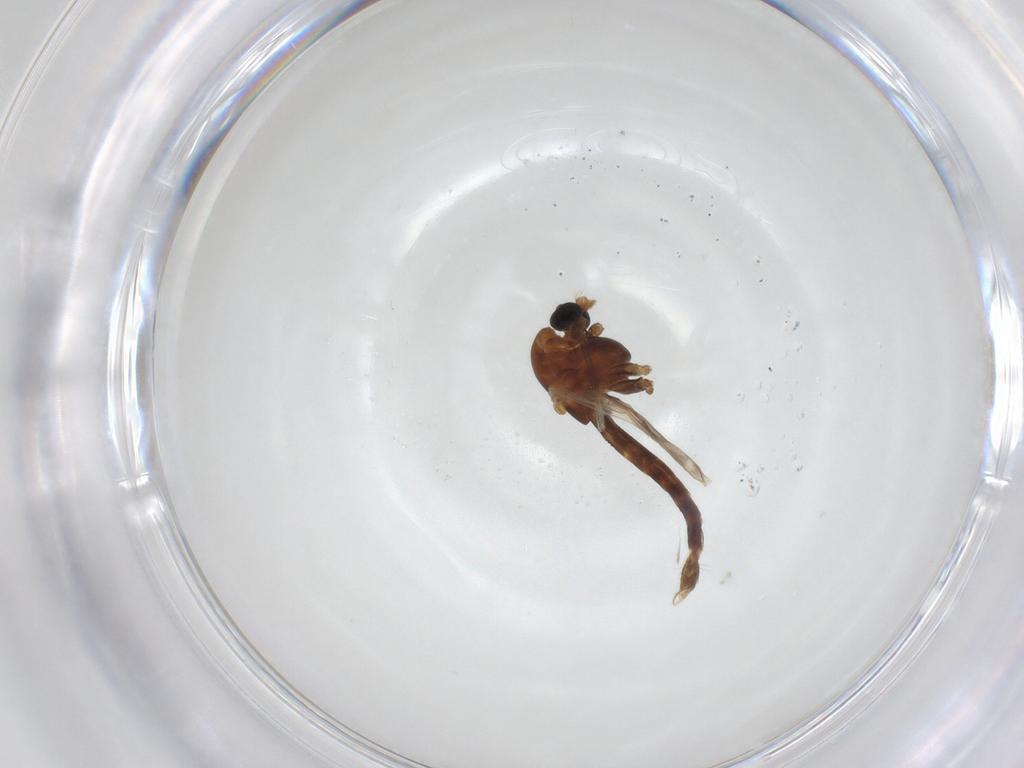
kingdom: Animalia
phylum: Arthropoda
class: Insecta
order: Diptera
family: Chironomidae
